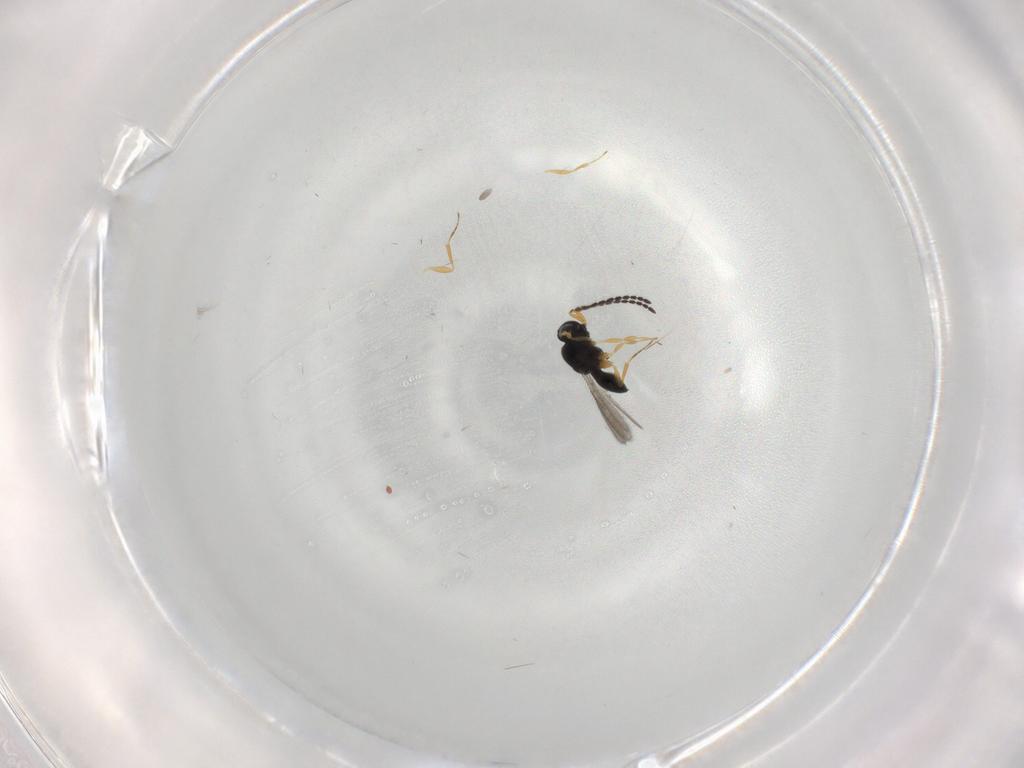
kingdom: Animalia
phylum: Arthropoda
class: Insecta
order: Hymenoptera
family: Scelionidae
